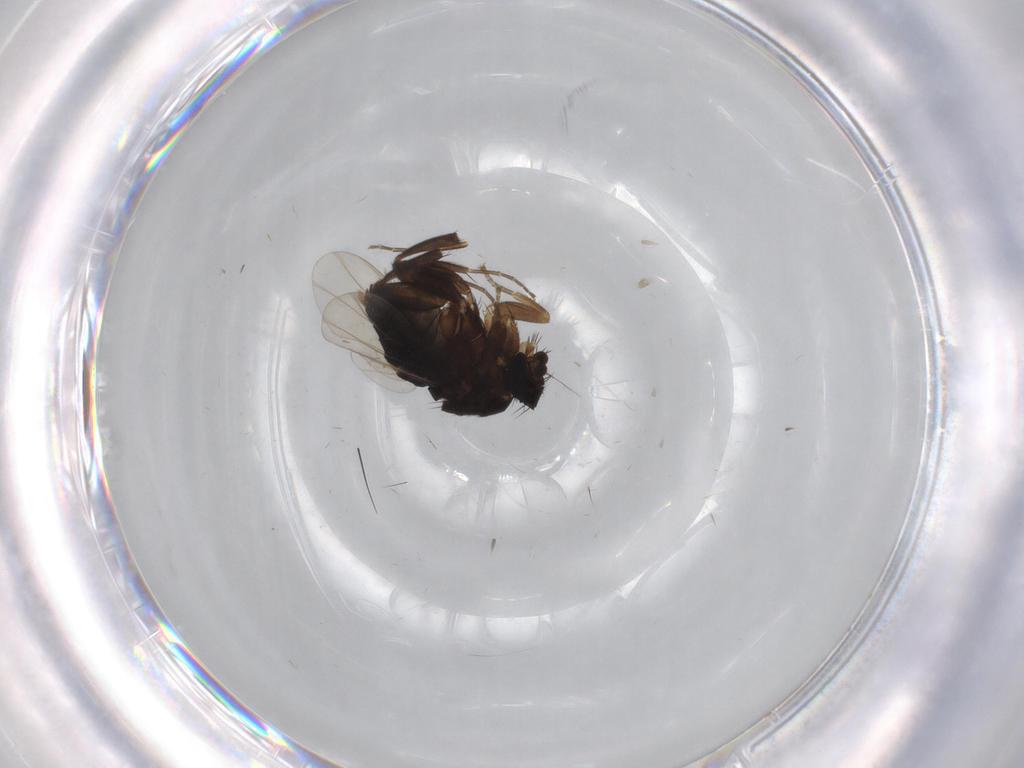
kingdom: Animalia
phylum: Arthropoda
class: Insecta
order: Diptera
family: Phoridae
